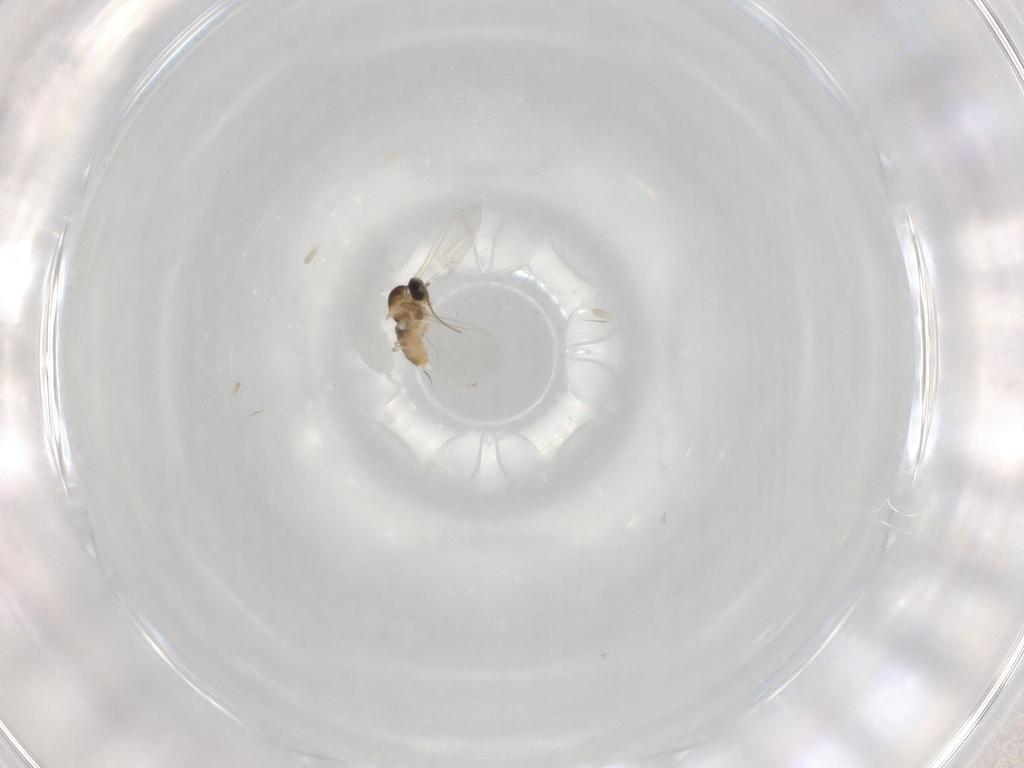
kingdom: Animalia
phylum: Arthropoda
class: Insecta
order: Diptera
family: Cecidomyiidae
